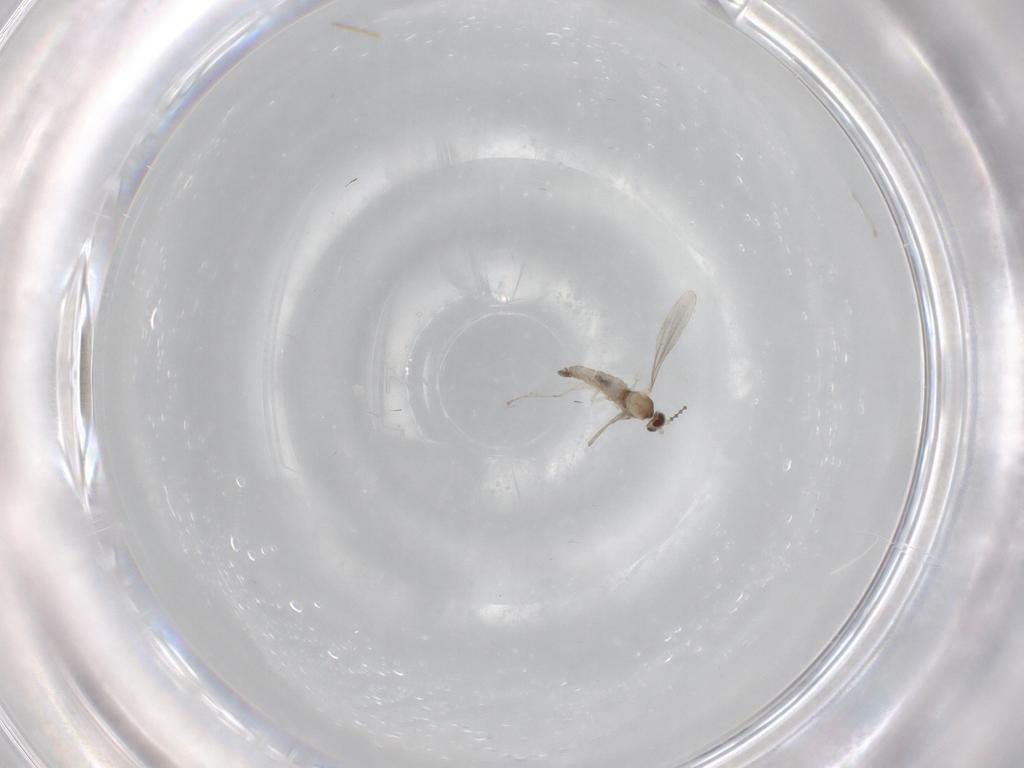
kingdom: Animalia
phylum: Arthropoda
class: Insecta
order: Diptera
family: Cecidomyiidae
